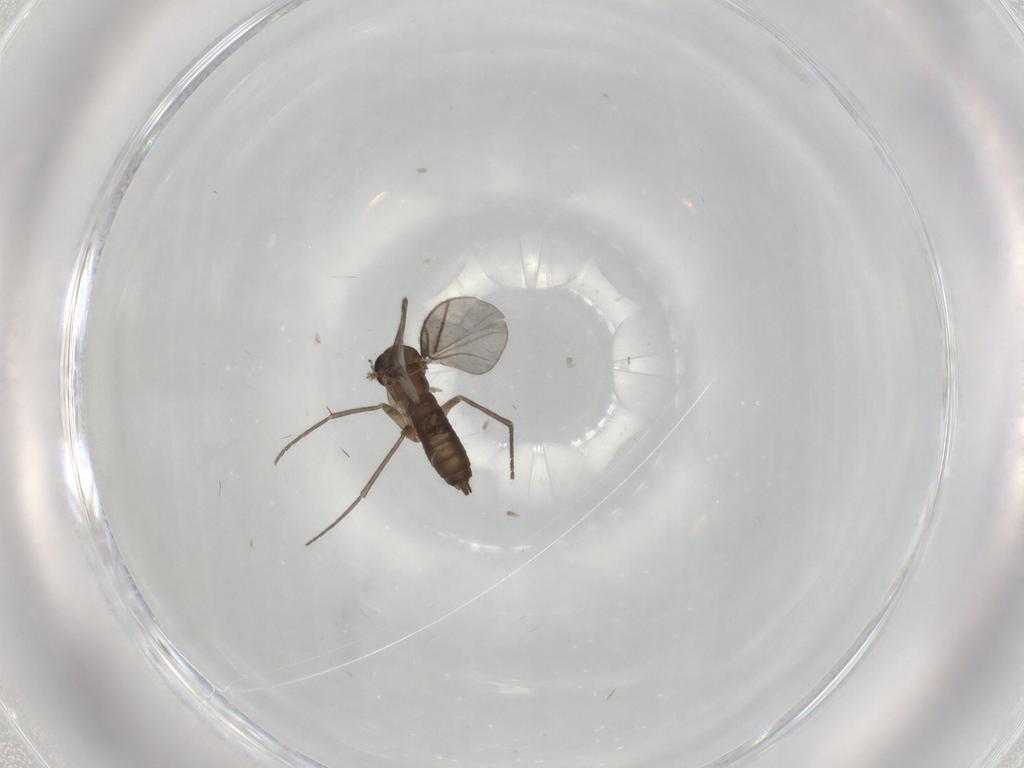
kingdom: Animalia
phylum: Arthropoda
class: Insecta
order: Diptera
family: Sciaridae
